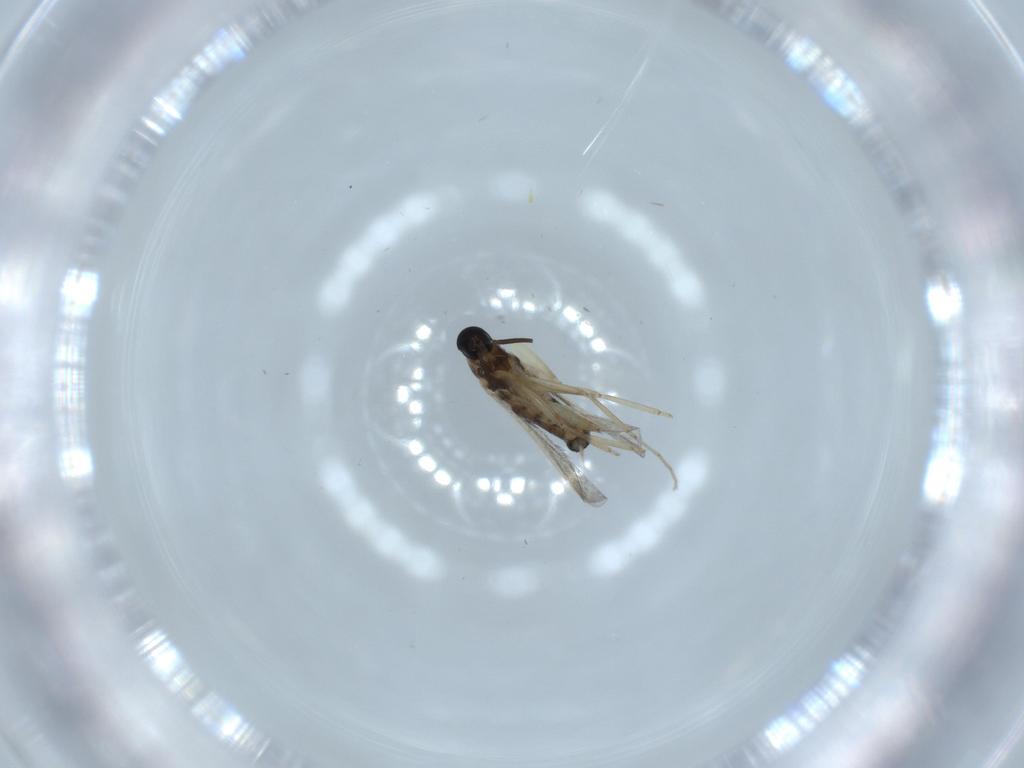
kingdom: Animalia
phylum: Arthropoda
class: Insecta
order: Diptera
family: Cecidomyiidae
